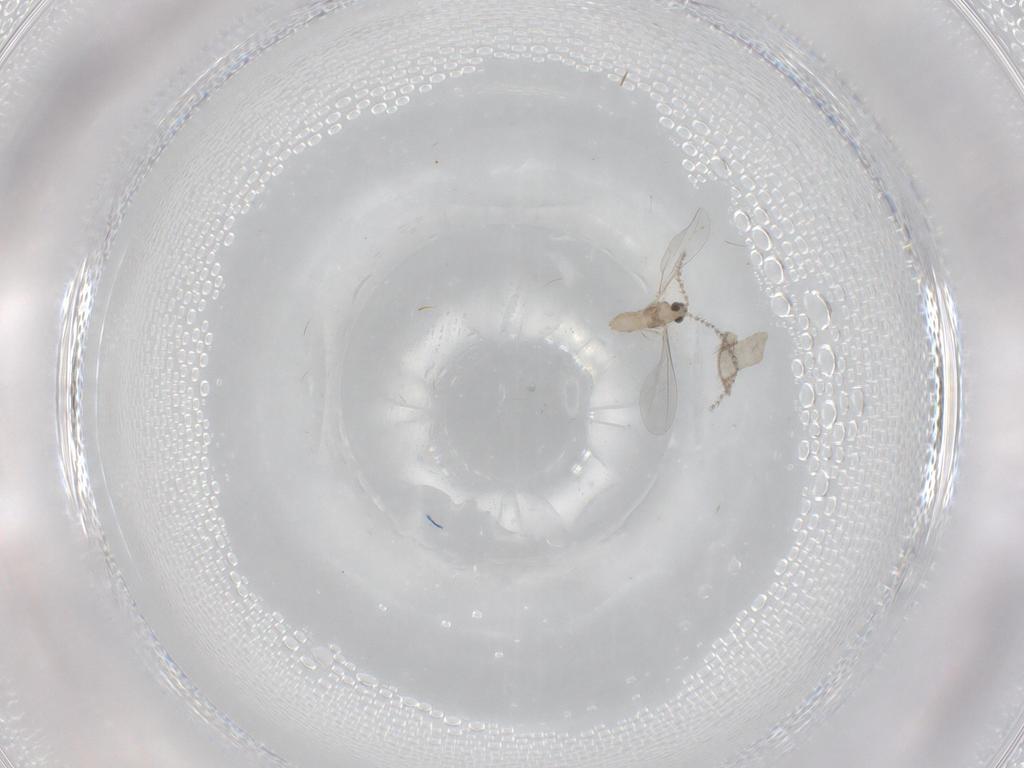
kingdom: Animalia
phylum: Arthropoda
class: Insecta
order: Diptera
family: Cecidomyiidae
